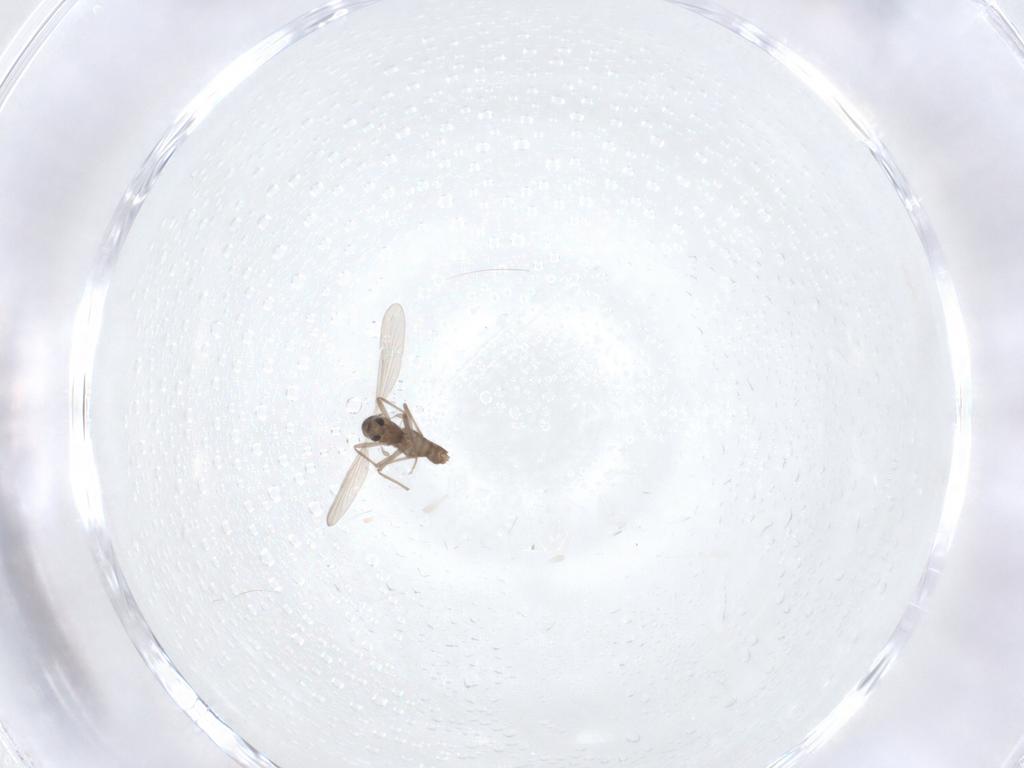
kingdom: Animalia
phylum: Arthropoda
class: Insecta
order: Diptera
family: Chironomidae
